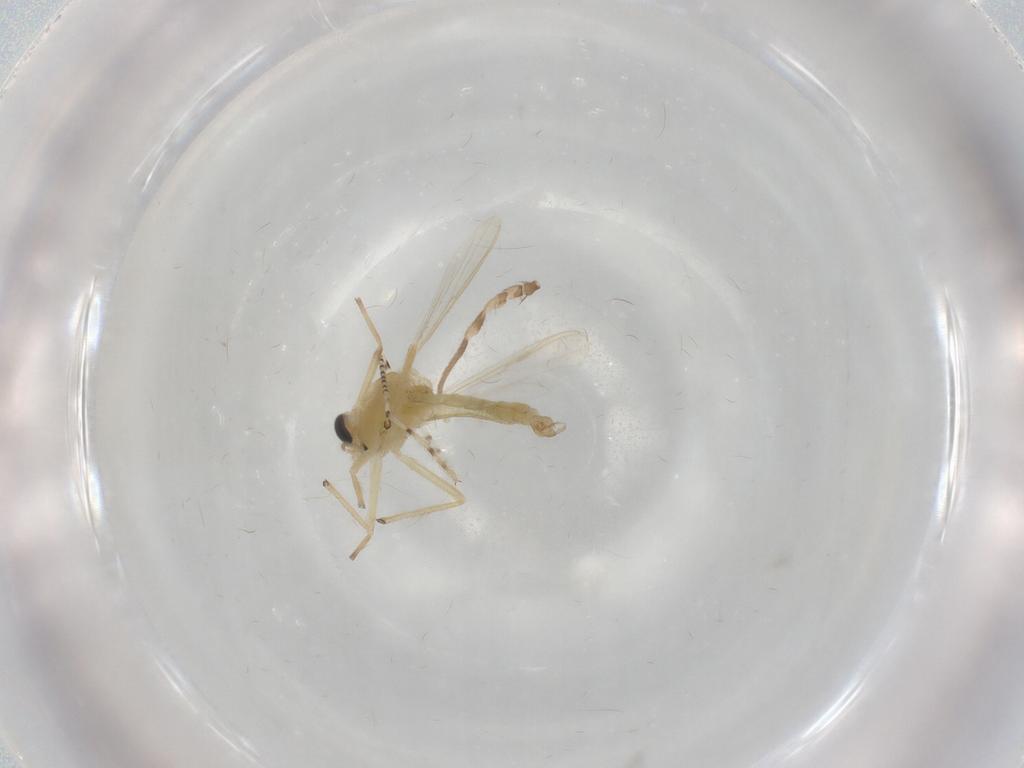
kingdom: Animalia
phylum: Arthropoda
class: Insecta
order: Diptera
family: Chironomidae
